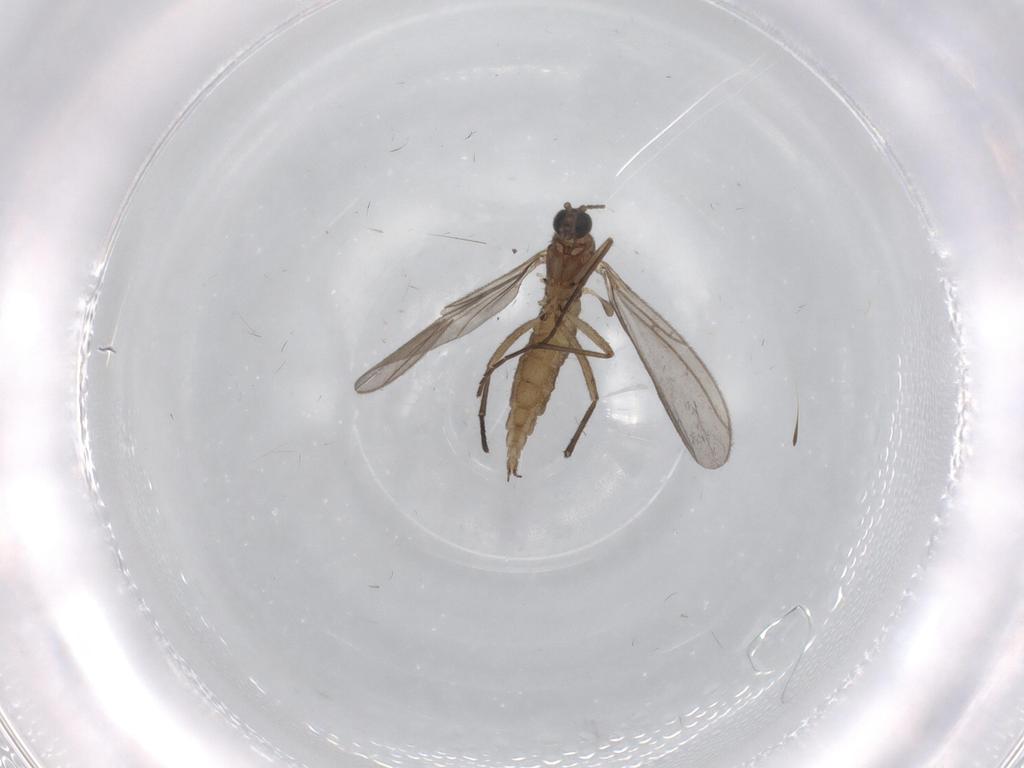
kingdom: Animalia
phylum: Arthropoda
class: Insecta
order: Diptera
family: Sciaridae
